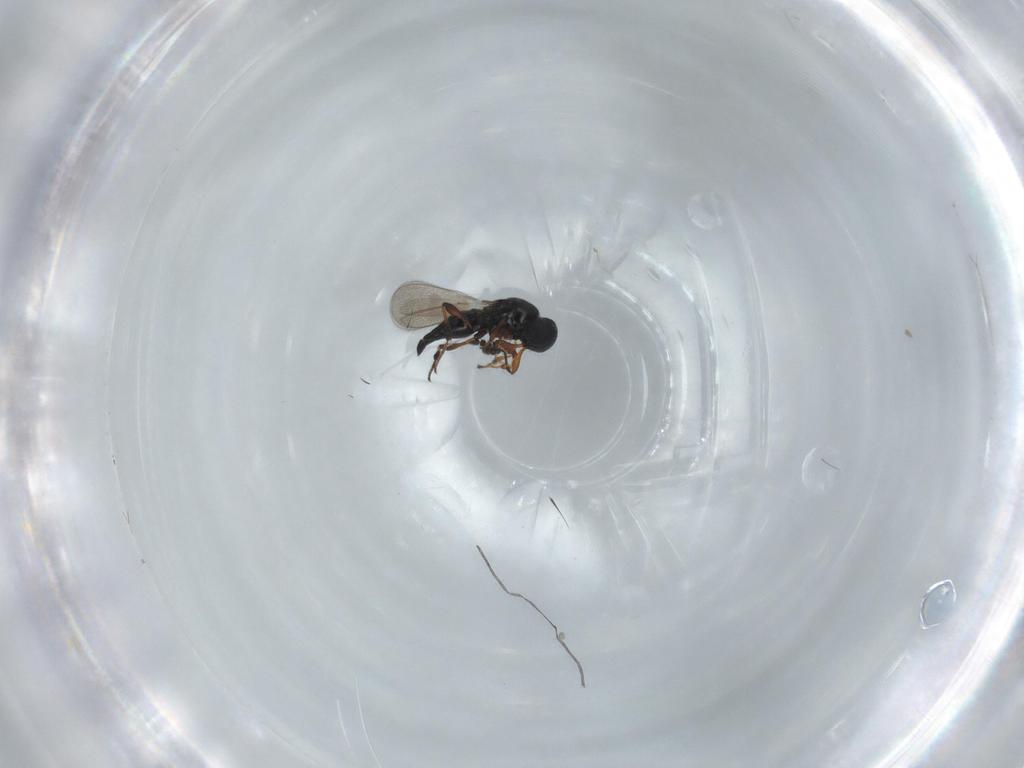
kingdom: Animalia
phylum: Arthropoda
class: Insecta
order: Hymenoptera
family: Platygastridae
